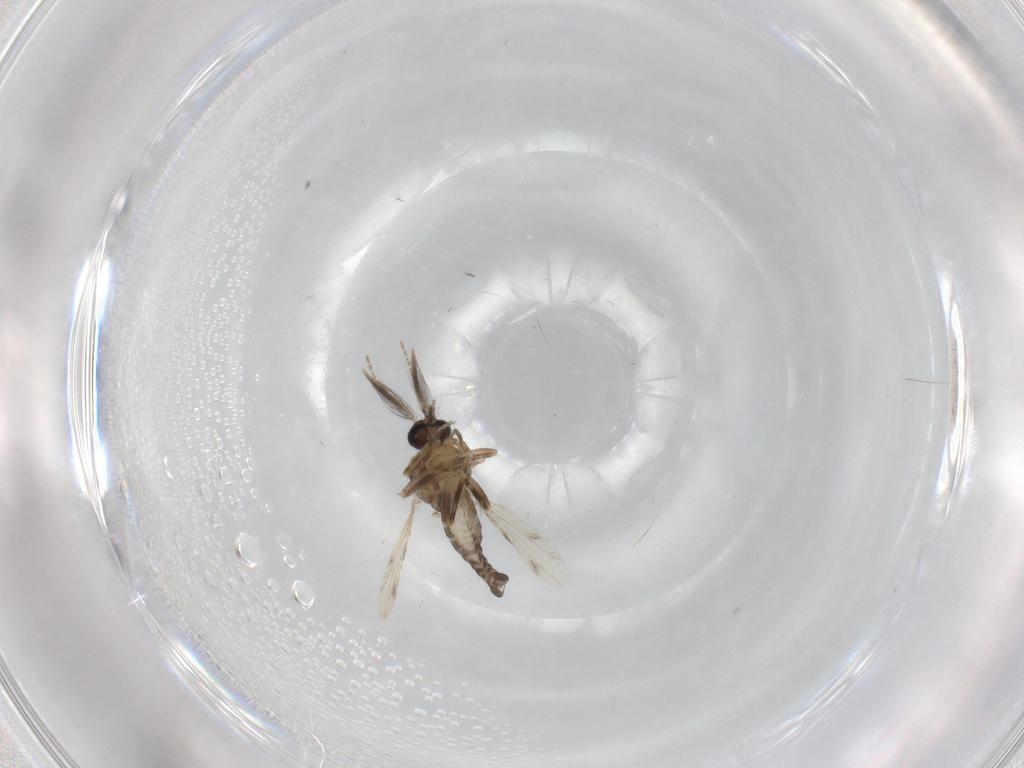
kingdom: Animalia
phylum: Arthropoda
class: Insecta
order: Diptera
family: Ceratopogonidae
